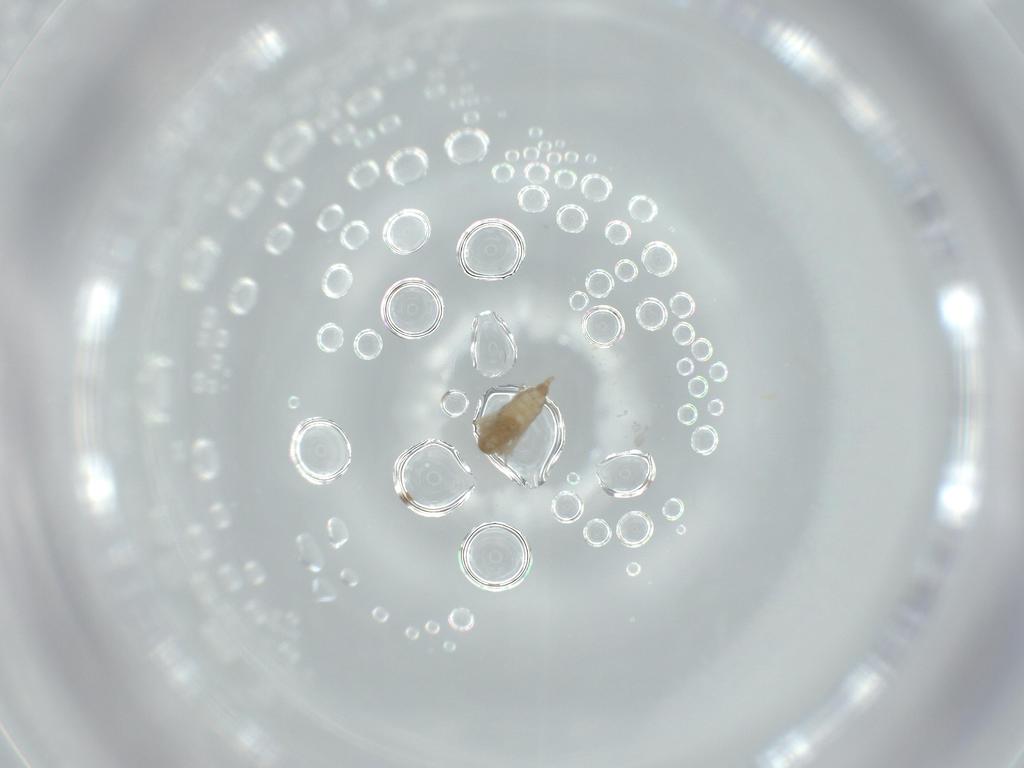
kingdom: Animalia
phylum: Arthropoda
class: Insecta
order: Diptera
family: Cecidomyiidae
